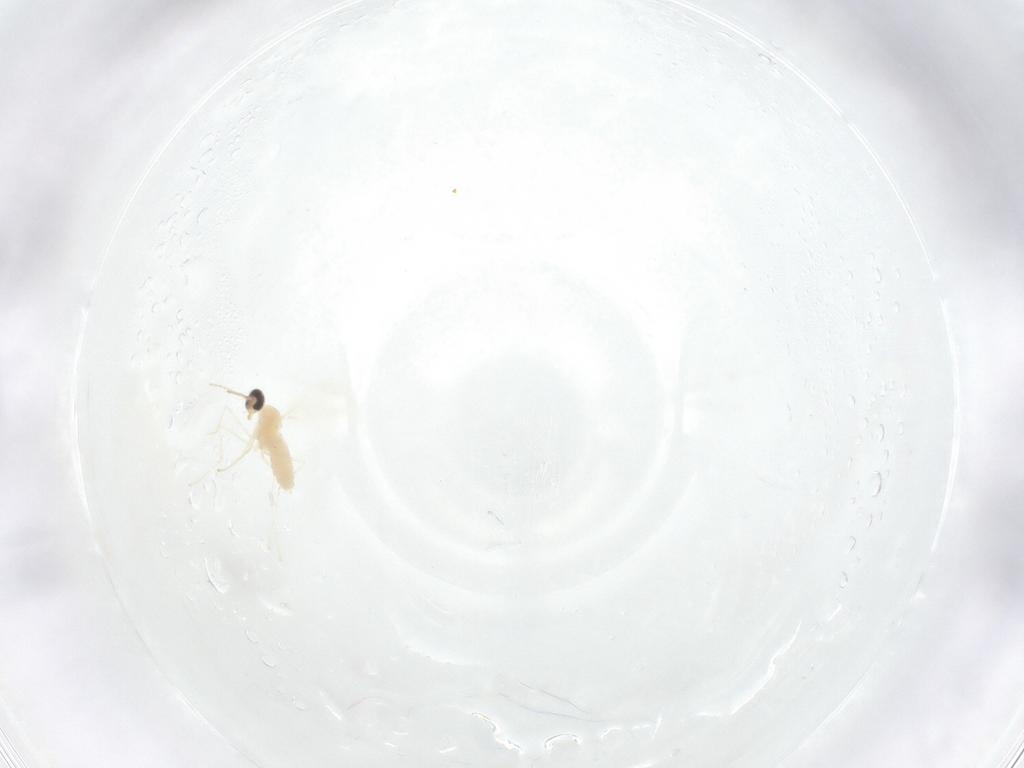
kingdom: Animalia
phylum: Arthropoda
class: Insecta
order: Diptera
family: Cecidomyiidae
